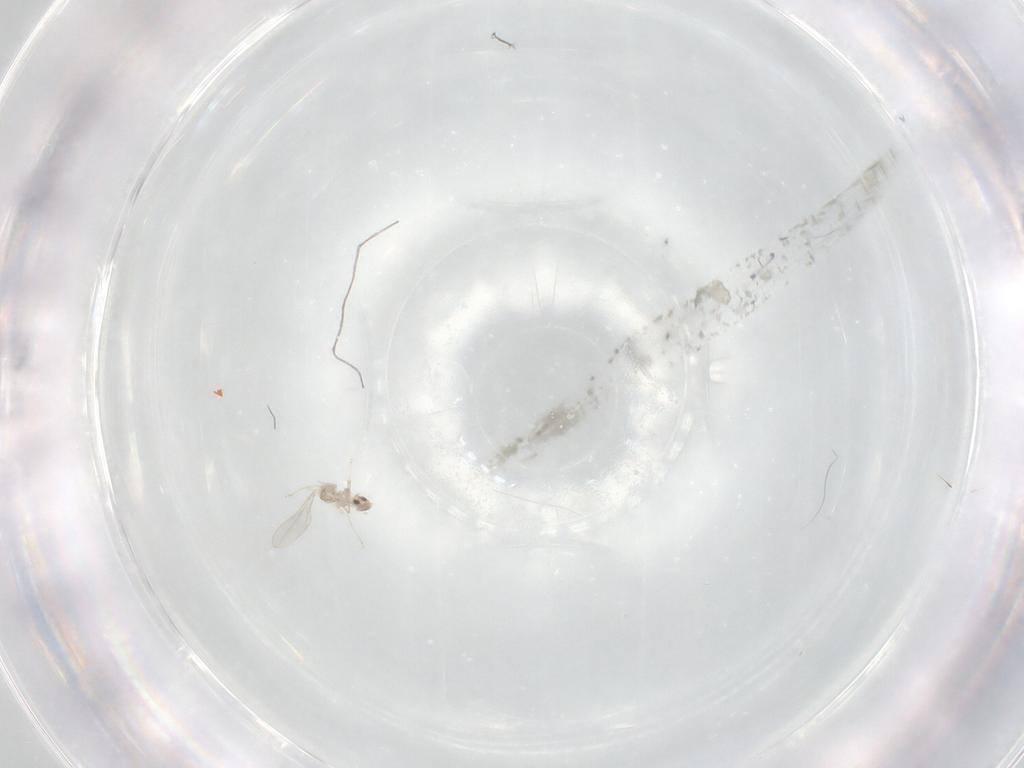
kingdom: Animalia
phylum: Arthropoda
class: Insecta
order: Diptera
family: Cecidomyiidae
